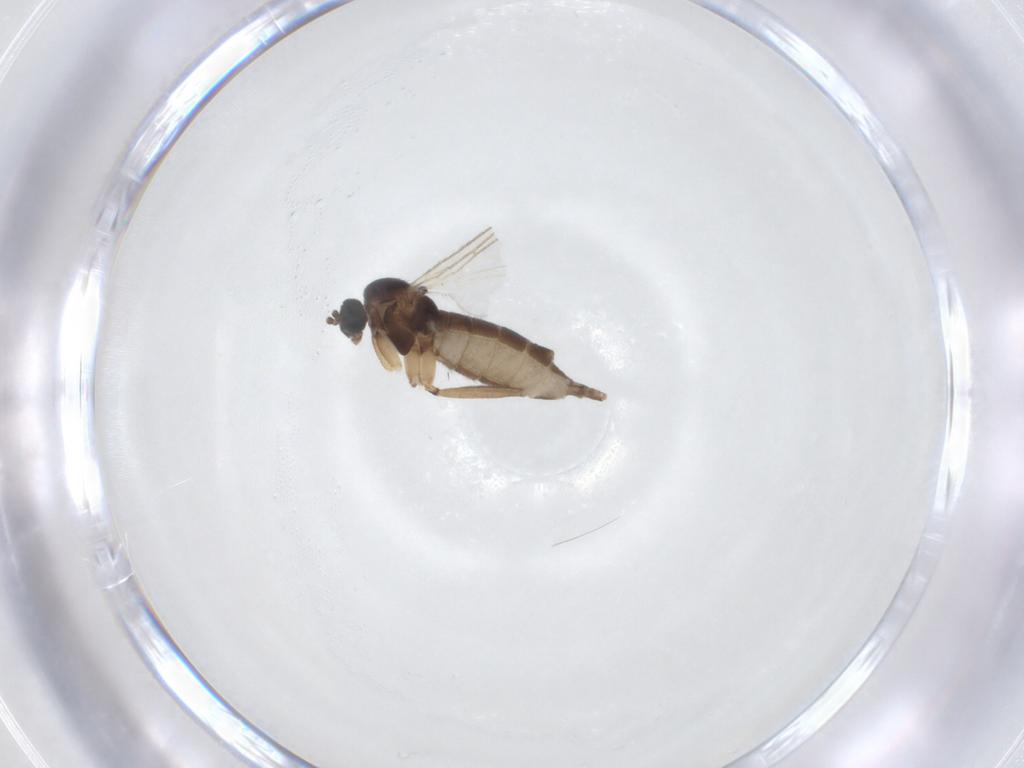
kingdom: Animalia
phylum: Arthropoda
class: Insecta
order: Diptera
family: Sciaridae
